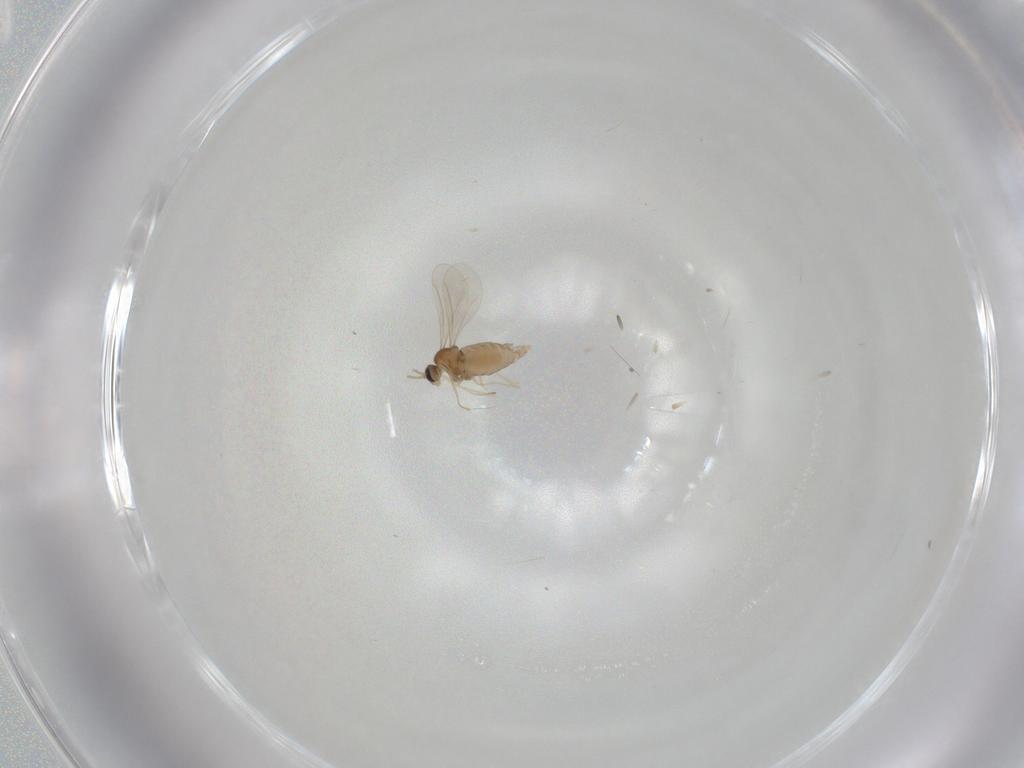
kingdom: Animalia
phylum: Arthropoda
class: Insecta
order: Diptera
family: Cecidomyiidae
